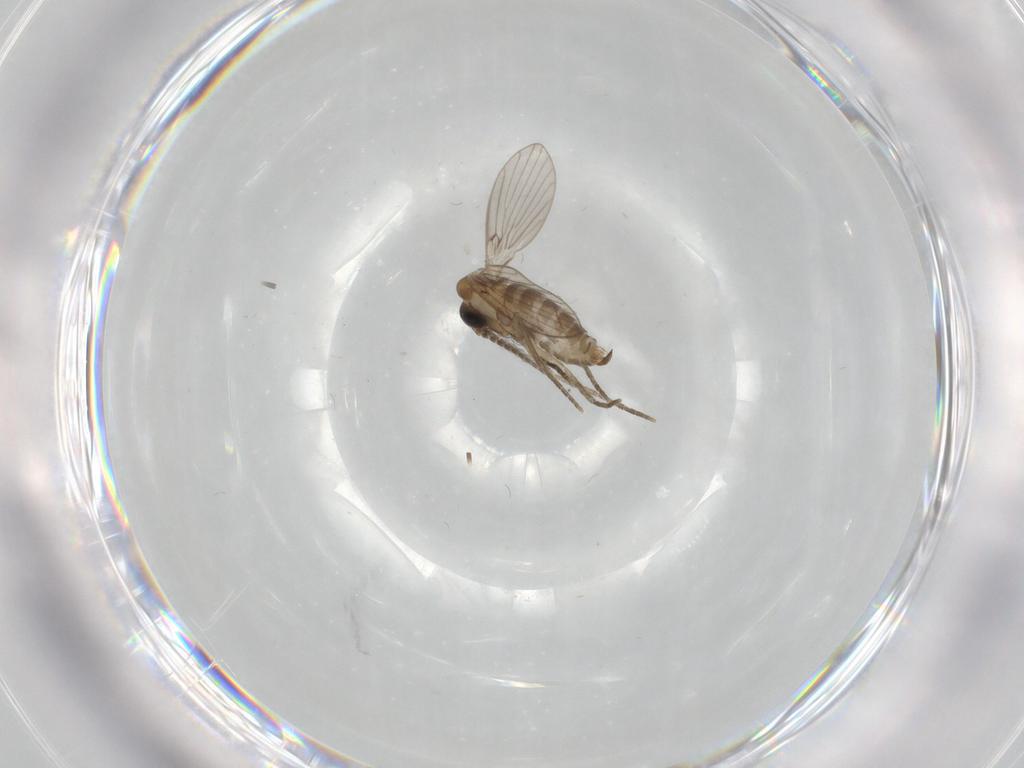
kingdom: Animalia
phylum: Arthropoda
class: Insecta
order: Diptera
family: Psychodidae
